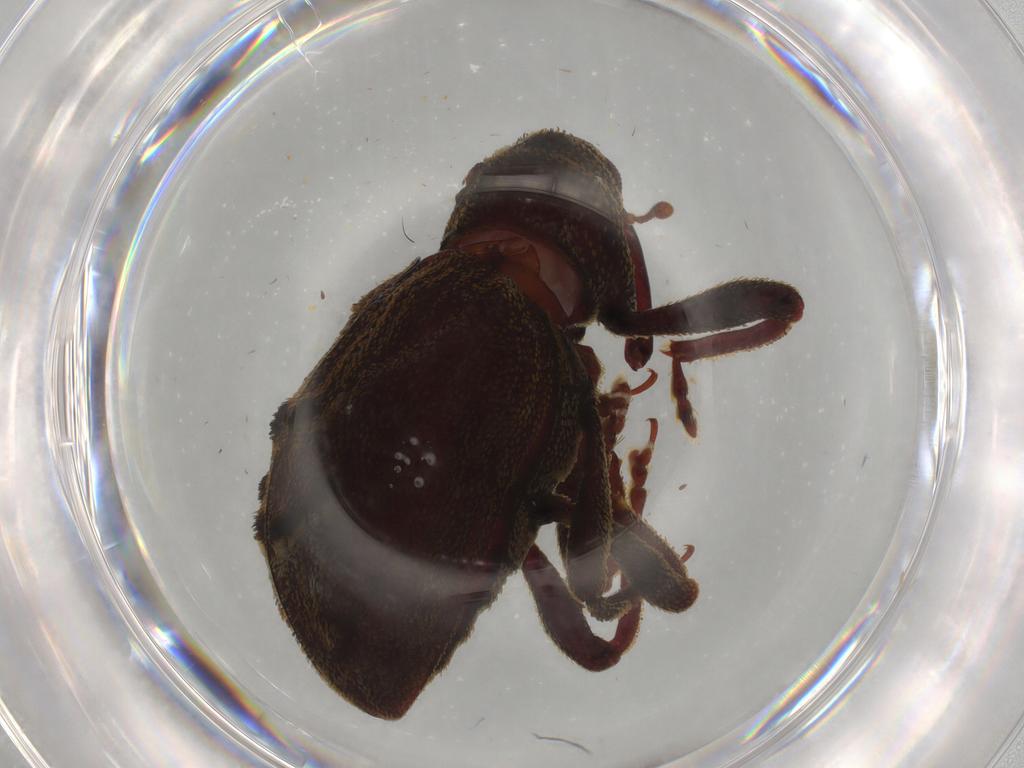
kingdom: Animalia
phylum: Arthropoda
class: Insecta
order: Coleoptera
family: Curculionidae
